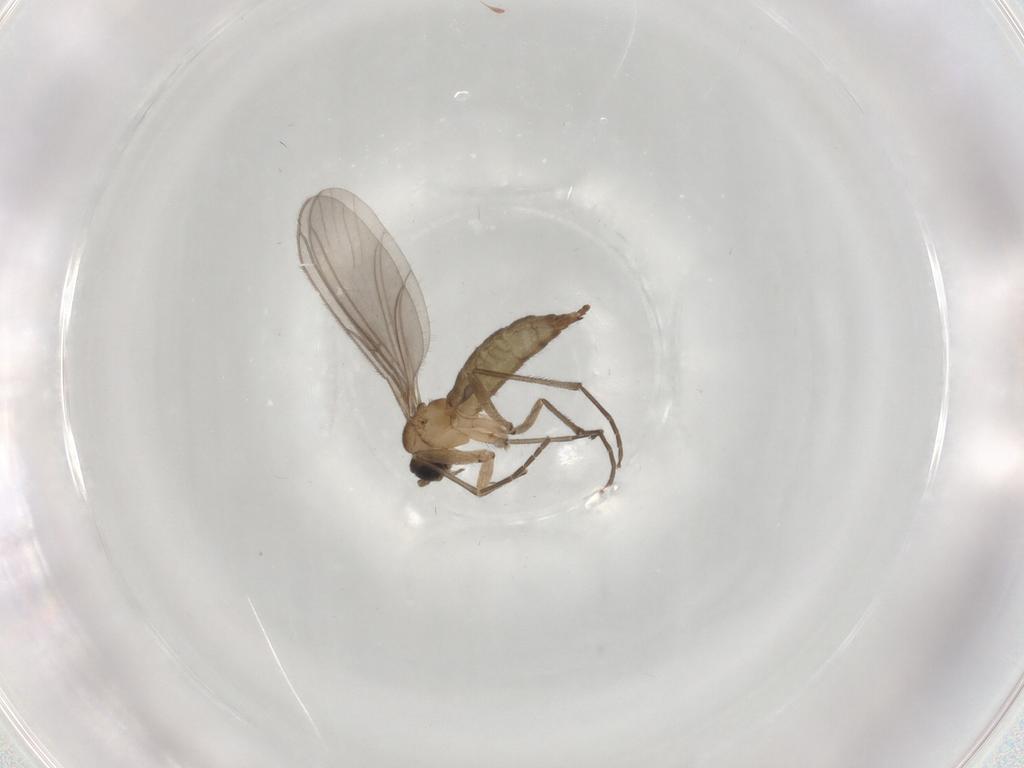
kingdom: Animalia
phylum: Arthropoda
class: Insecta
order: Diptera
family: Sciaridae
